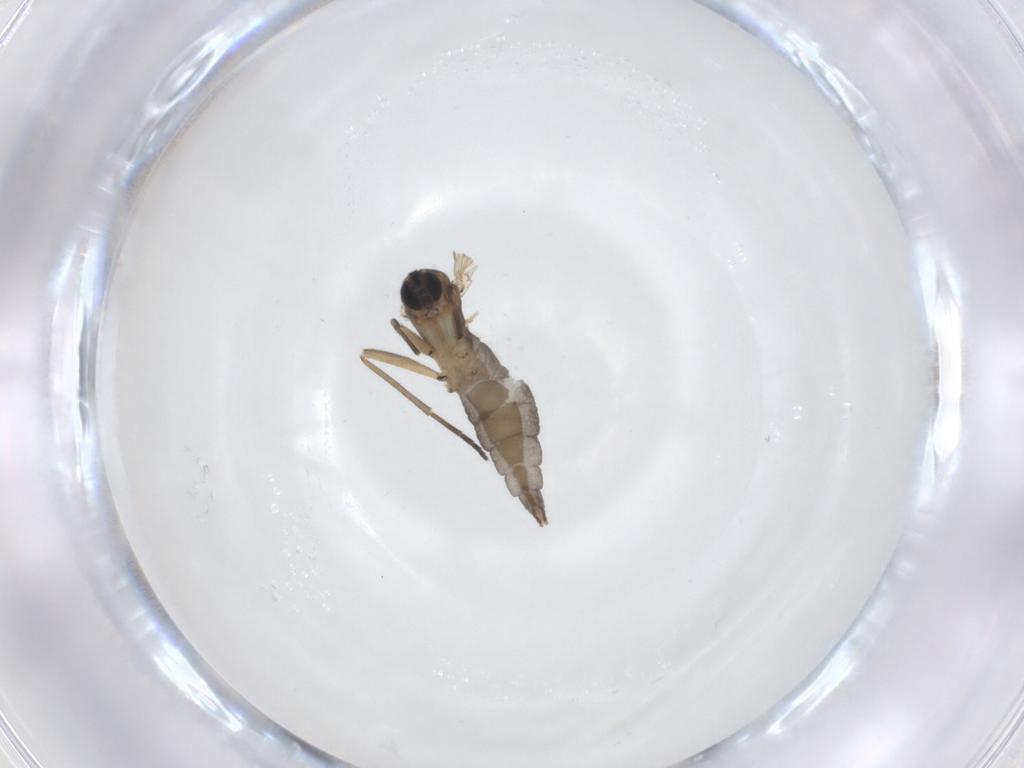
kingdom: Animalia
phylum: Arthropoda
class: Insecta
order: Diptera
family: Sciaridae
